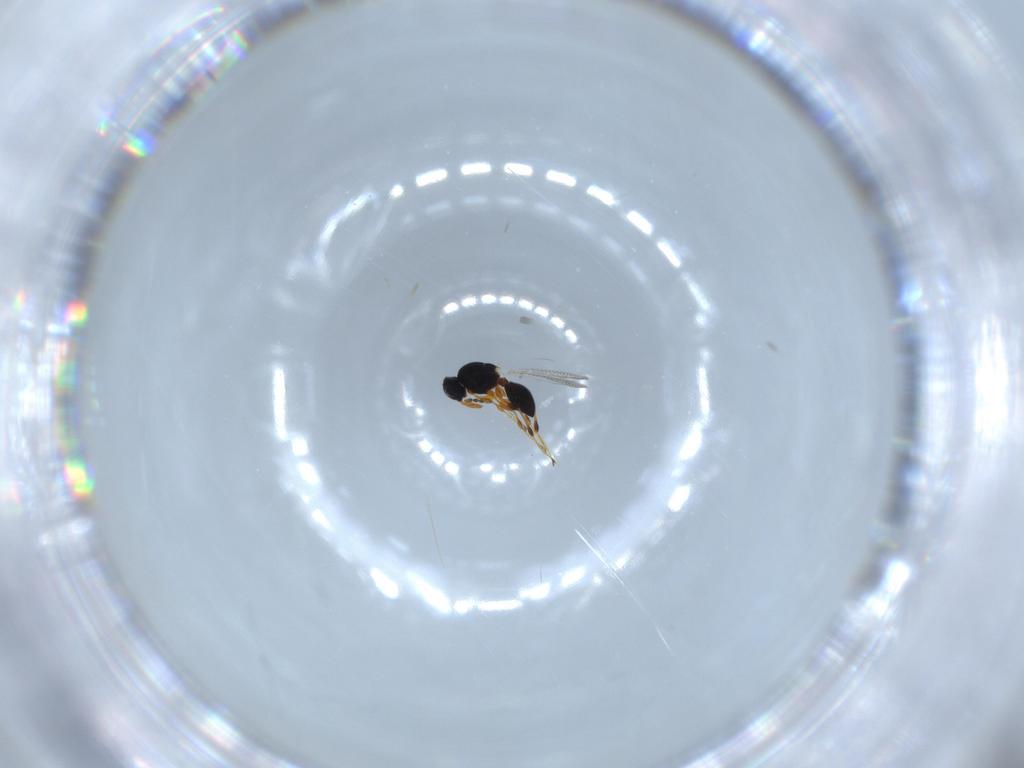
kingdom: Animalia
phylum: Arthropoda
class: Insecta
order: Hymenoptera
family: Platygastridae
